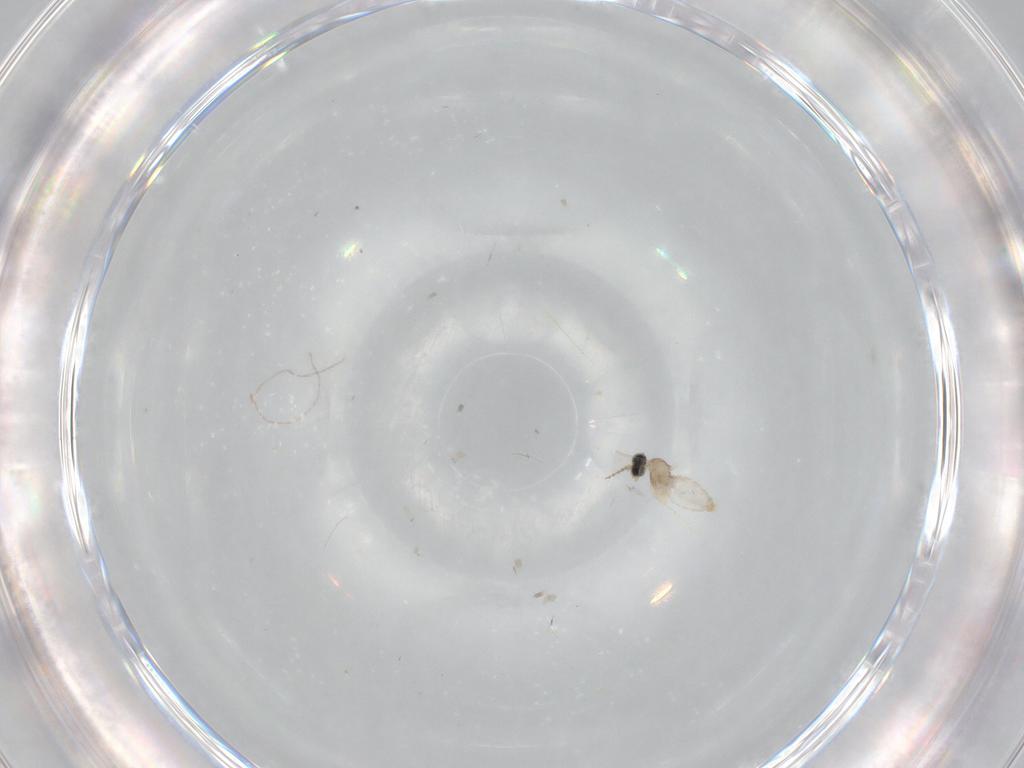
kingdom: Animalia
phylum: Arthropoda
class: Insecta
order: Diptera
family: Cecidomyiidae
